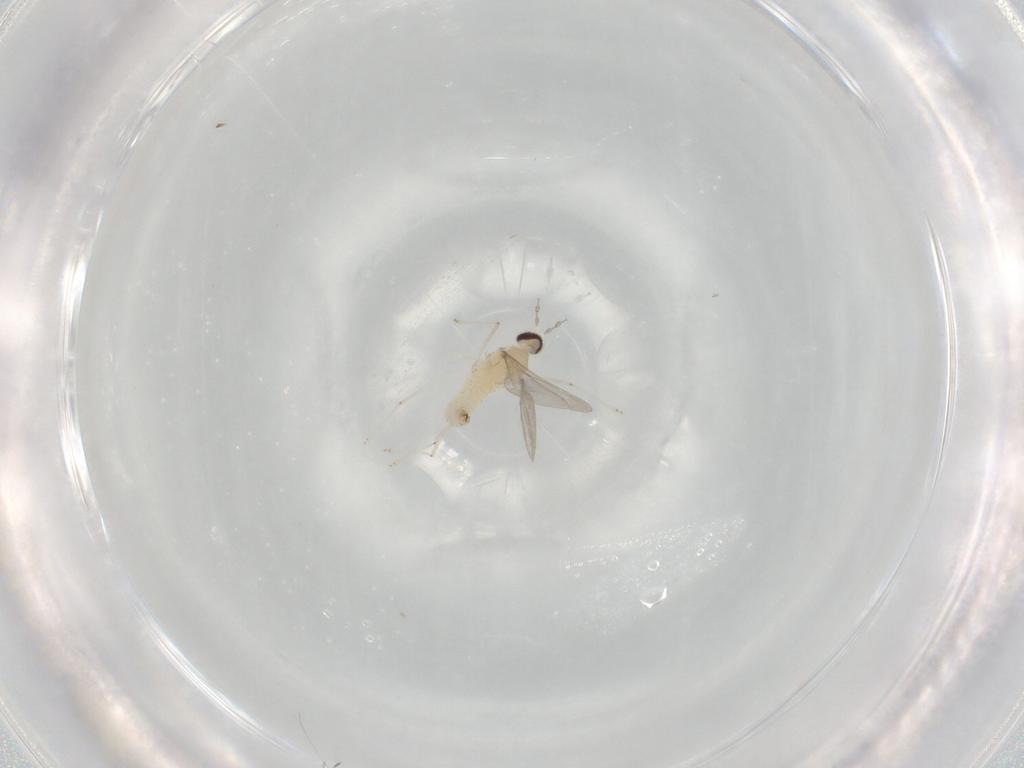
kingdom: Animalia
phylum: Arthropoda
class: Insecta
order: Diptera
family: Cecidomyiidae
